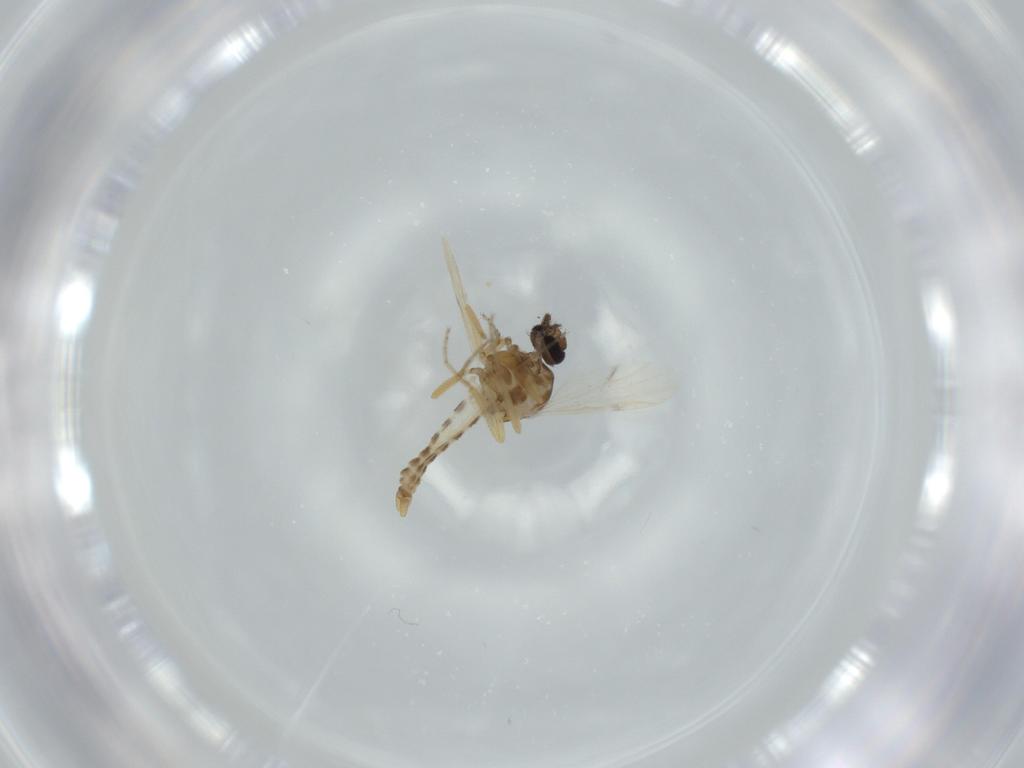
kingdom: Animalia
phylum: Arthropoda
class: Insecta
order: Diptera
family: Ceratopogonidae
